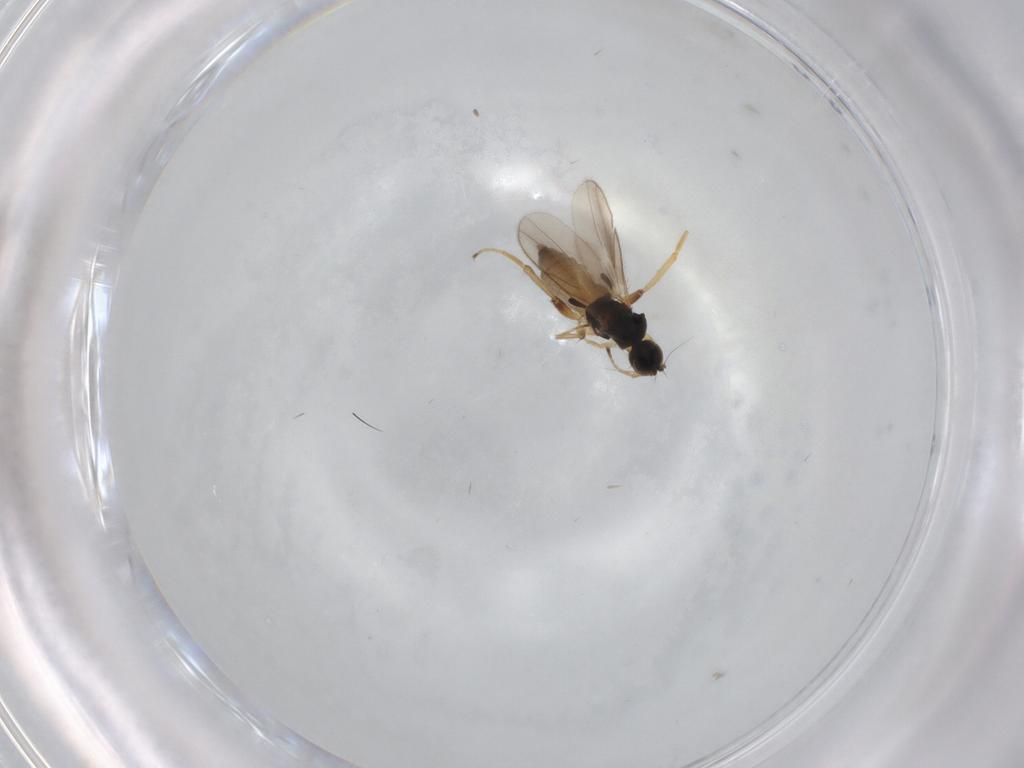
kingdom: Animalia
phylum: Arthropoda
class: Insecta
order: Diptera
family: Hybotidae
